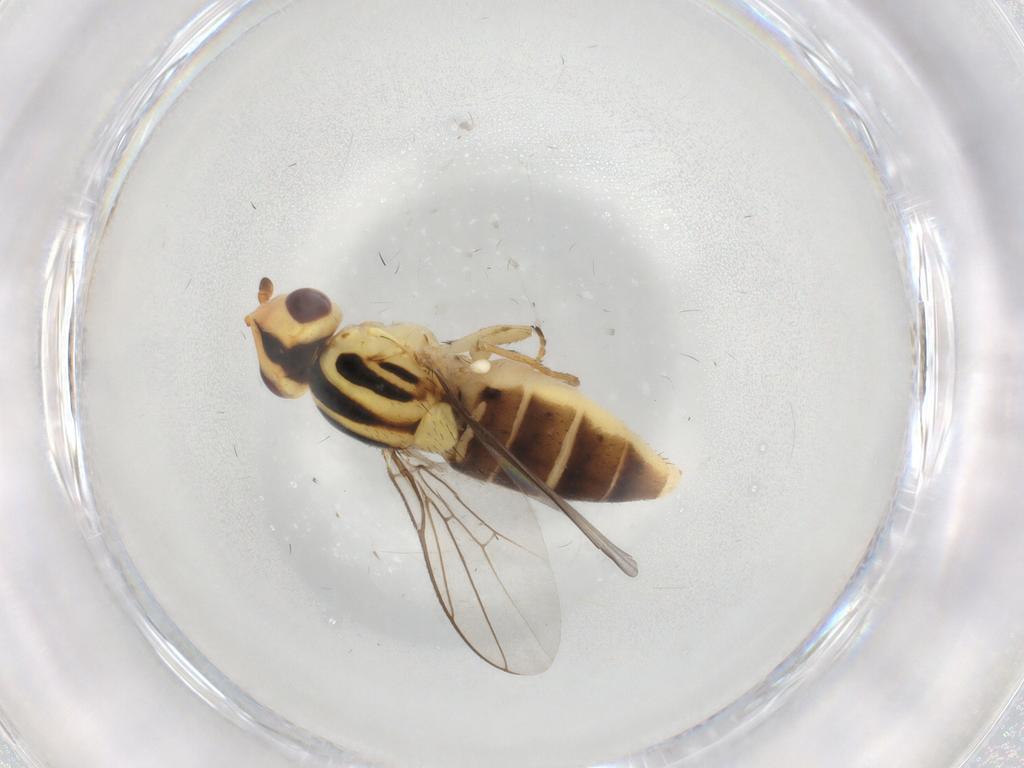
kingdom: Animalia
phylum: Arthropoda
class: Insecta
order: Diptera
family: Chloropidae
